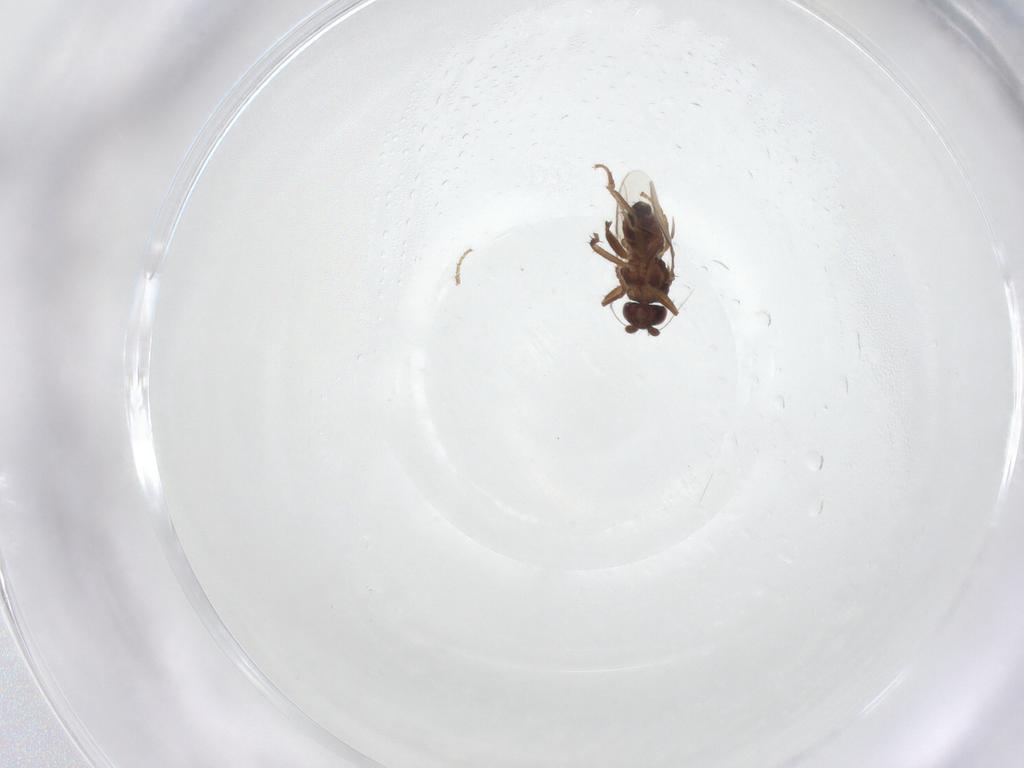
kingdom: Animalia
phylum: Arthropoda
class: Insecta
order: Diptera
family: Sphaeroceridae
